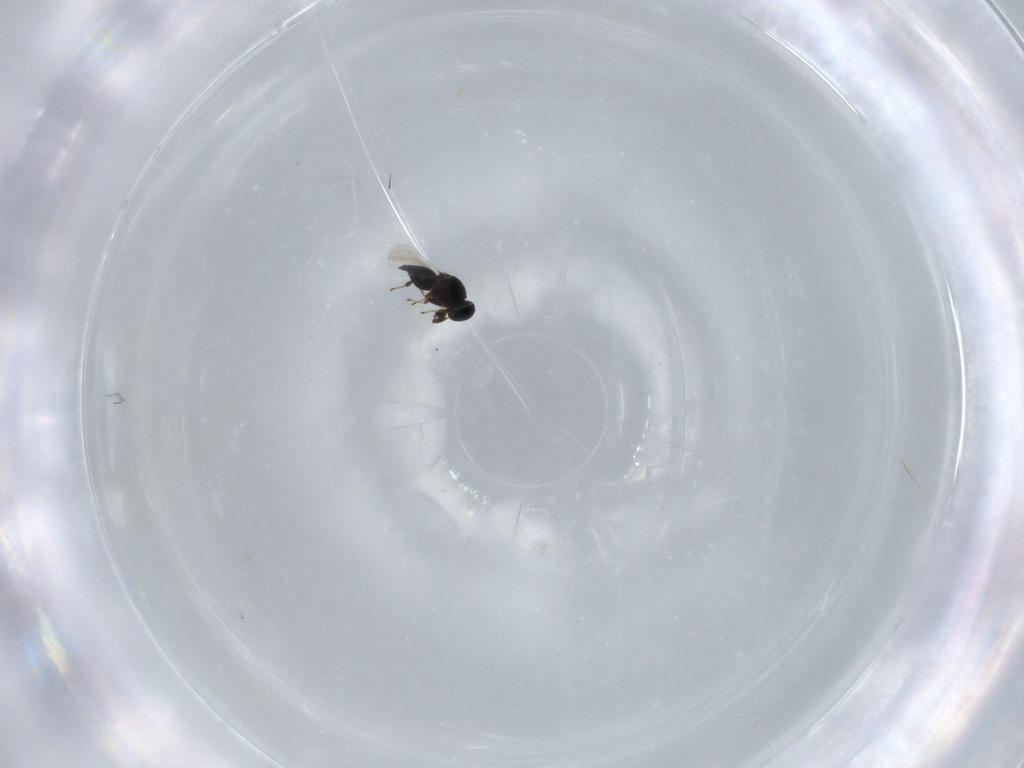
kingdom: Animalia
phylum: Arthropoda
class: Insecta
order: Hymenoptera
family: Platygastridae
